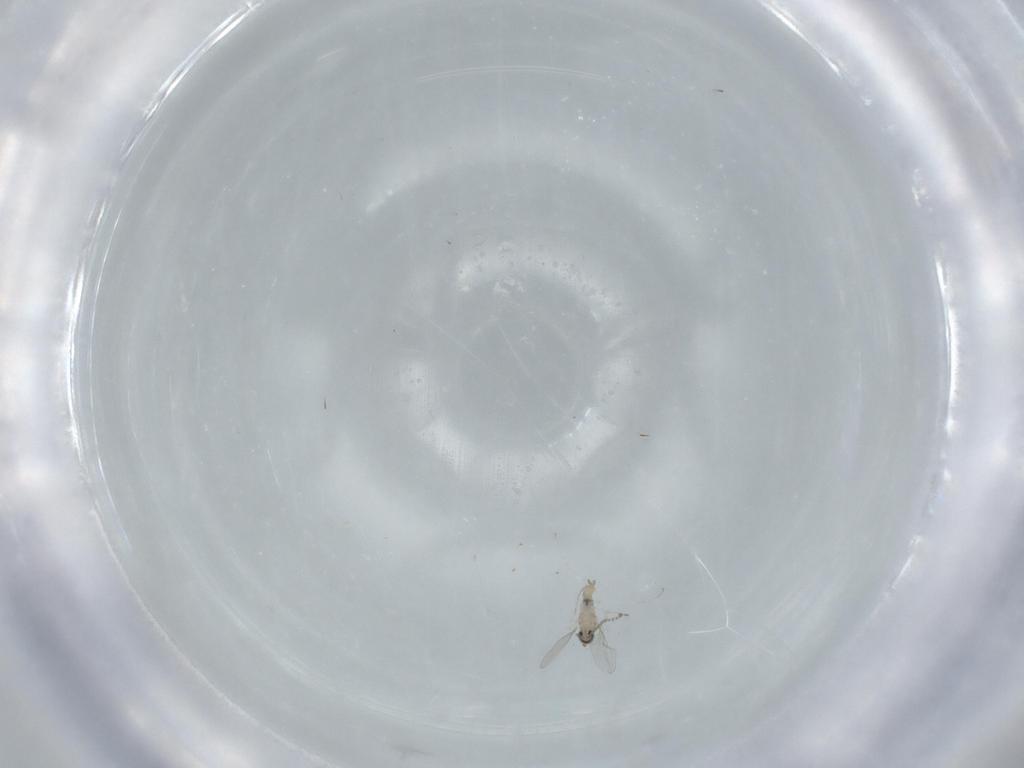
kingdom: Animalia
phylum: Arthropoda
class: Insecta
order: Diptera
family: Cecidomyiidae
